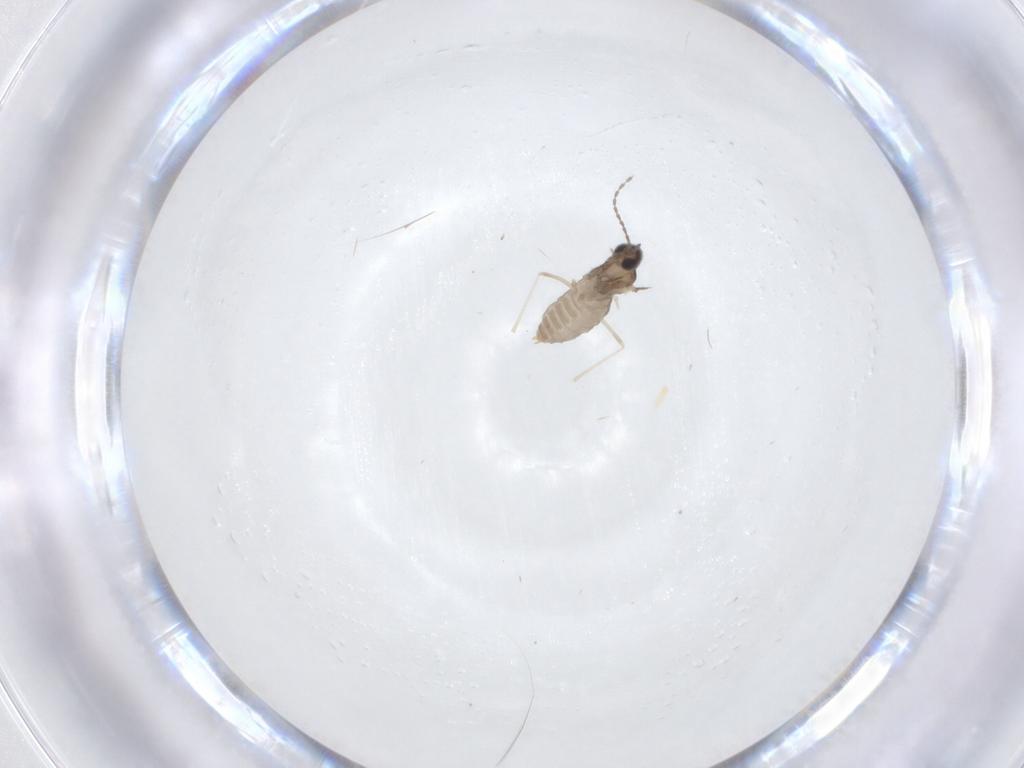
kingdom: Animalia
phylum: Arthropoda
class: Insecta
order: Diptera
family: Cecidomyiidae
